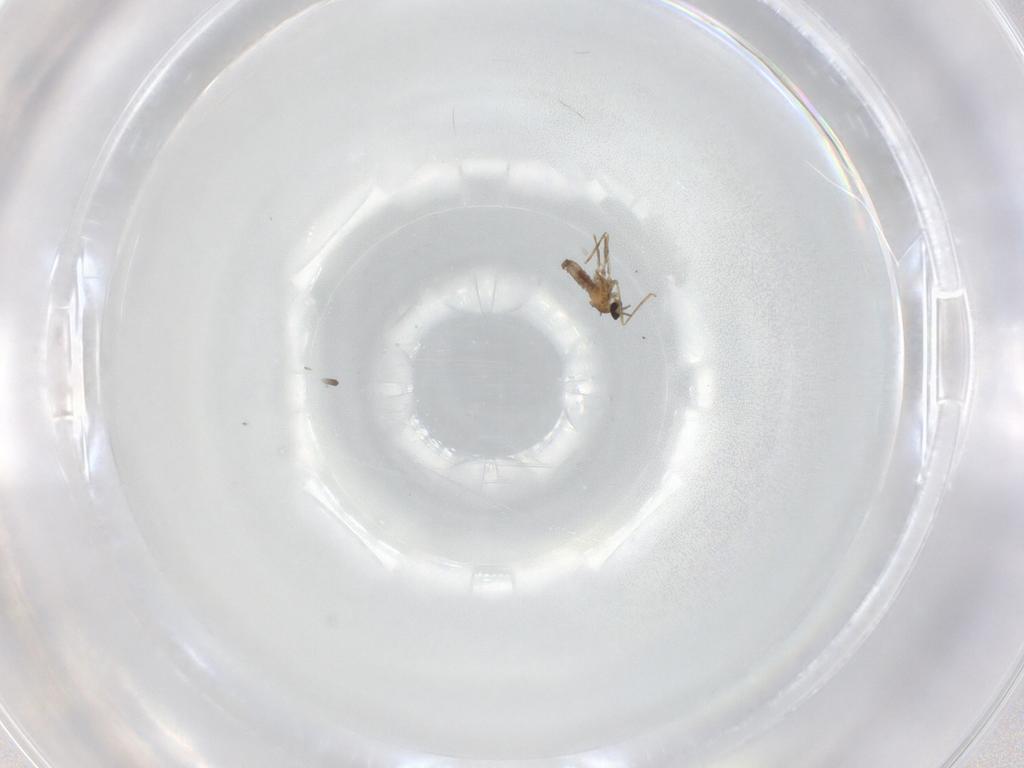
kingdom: Animalia
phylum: Arthropoda
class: Insecta
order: Diptera
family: Cecidomyiidae
